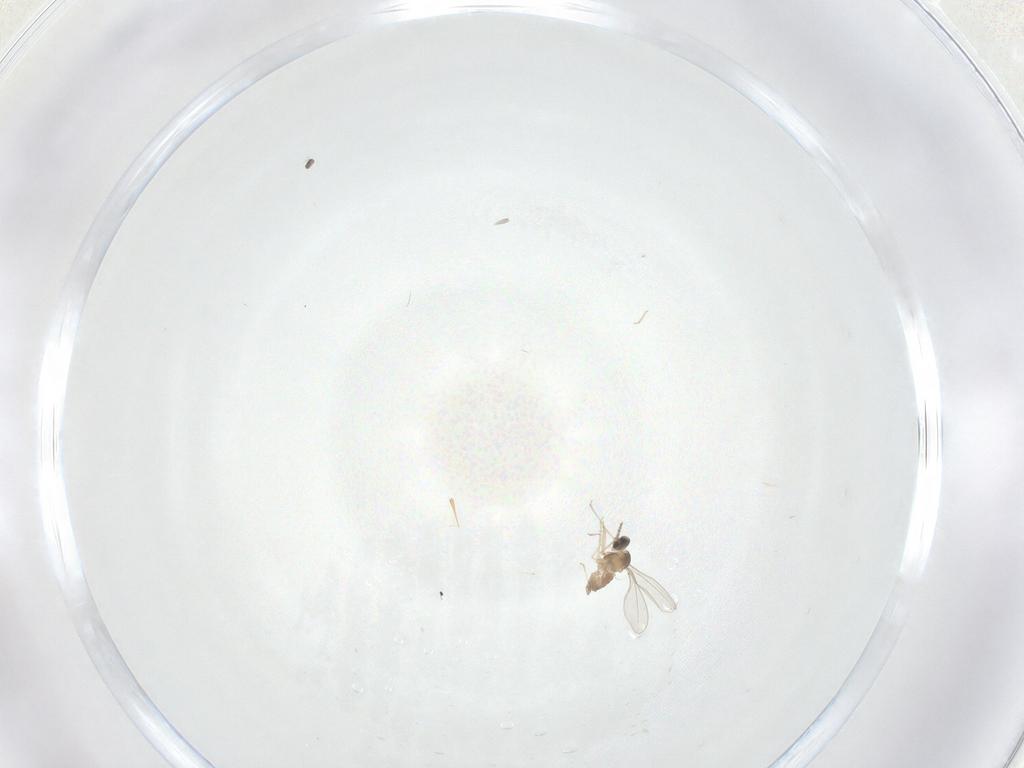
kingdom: Animalia
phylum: Arthropoda
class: Insecta
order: Diptera
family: Cecidomyiidae
